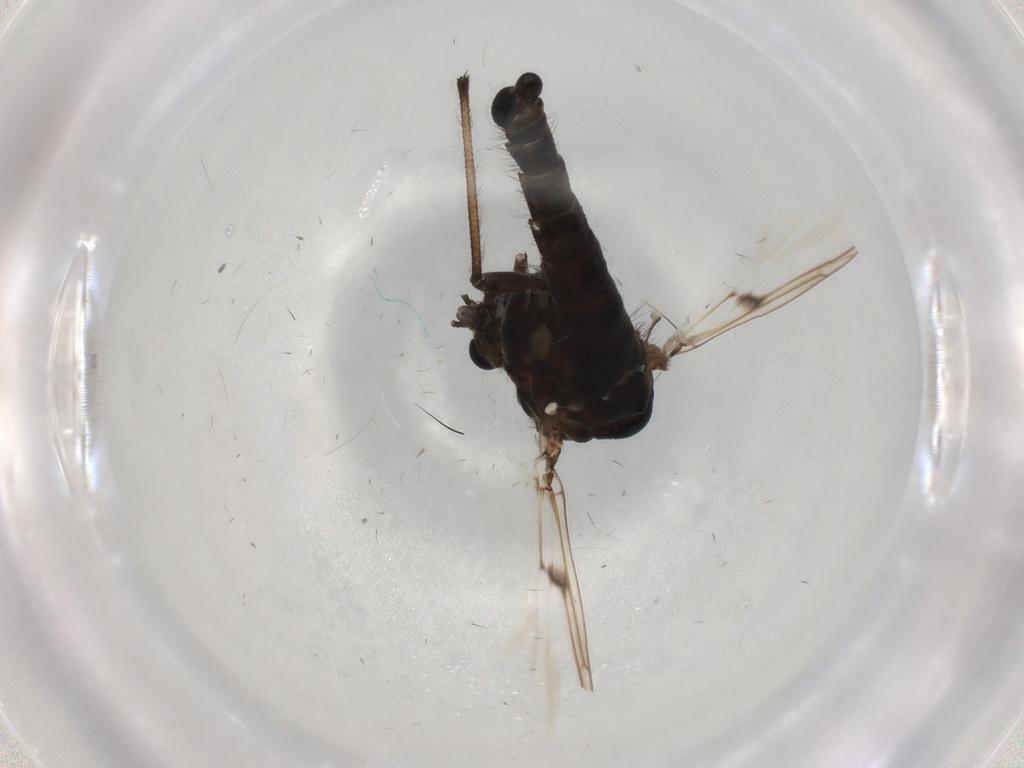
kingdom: Animalia
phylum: Arthropoda
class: Insecta
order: Diptera
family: Chironomidae
